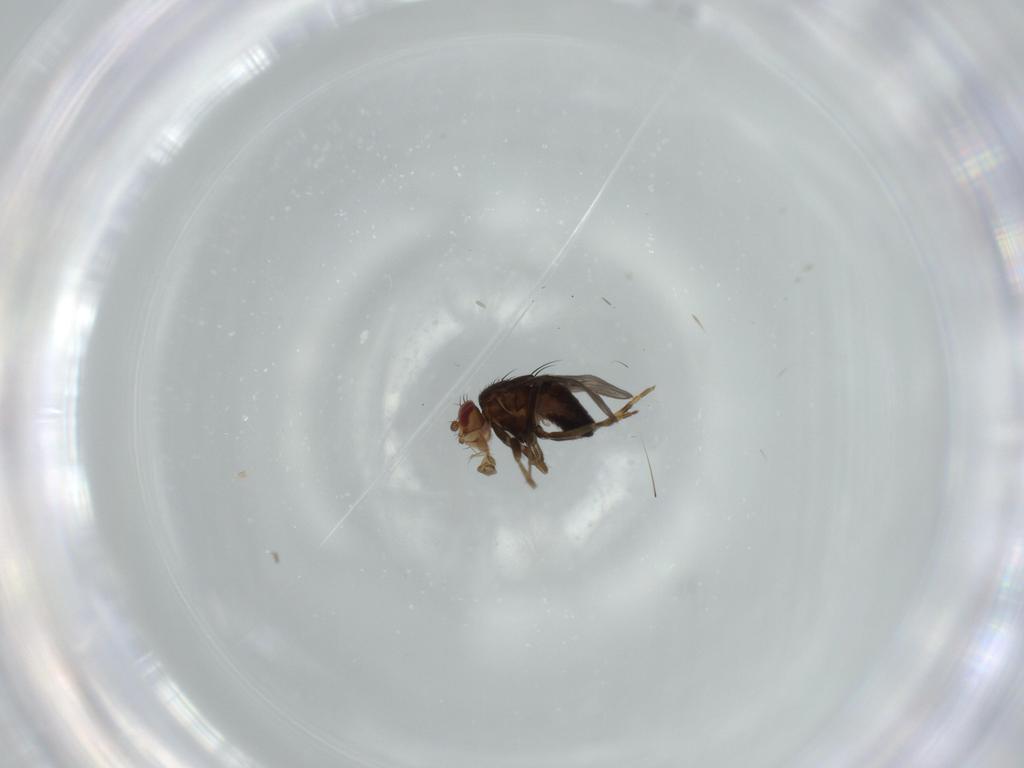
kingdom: Animalia
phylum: Arthropoda
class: Insecta
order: Diptera
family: Sphaeroceridae
